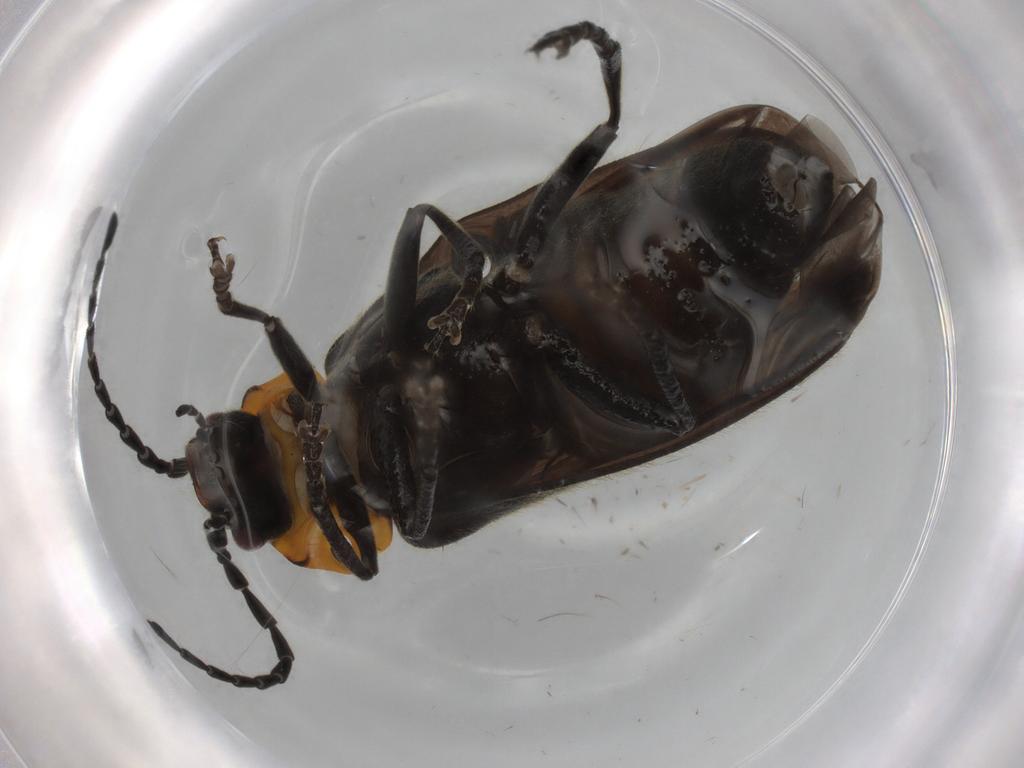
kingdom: Animalia
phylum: Arthropoda
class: Insecta
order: Coleoptera
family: Cantharidae
